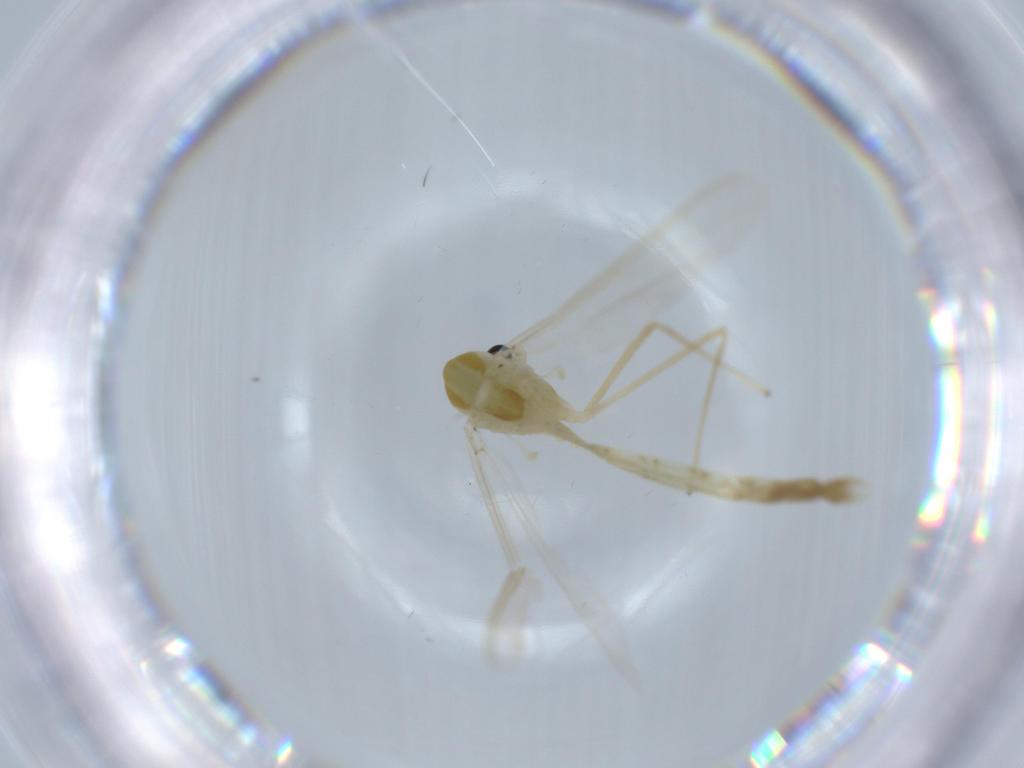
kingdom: Animalia
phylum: Arthropoda
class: Insecta
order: Diptera
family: Chironomidae
